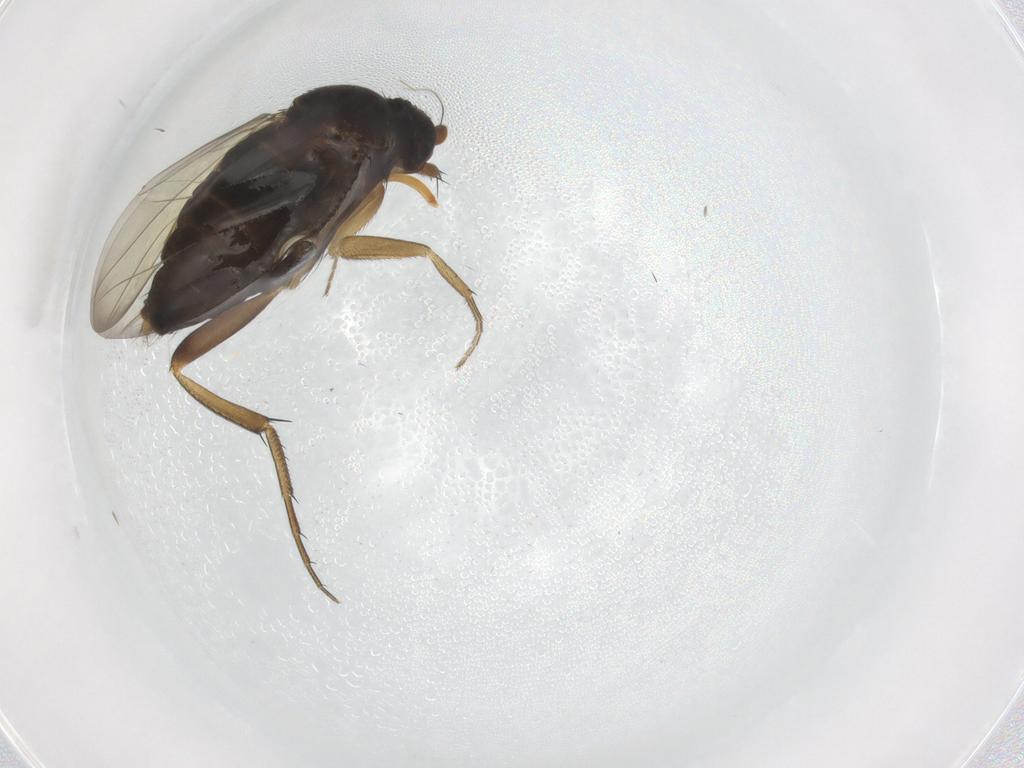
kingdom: Animalia
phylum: Arthropoda
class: Insecta
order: Diptera
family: Phoridae
